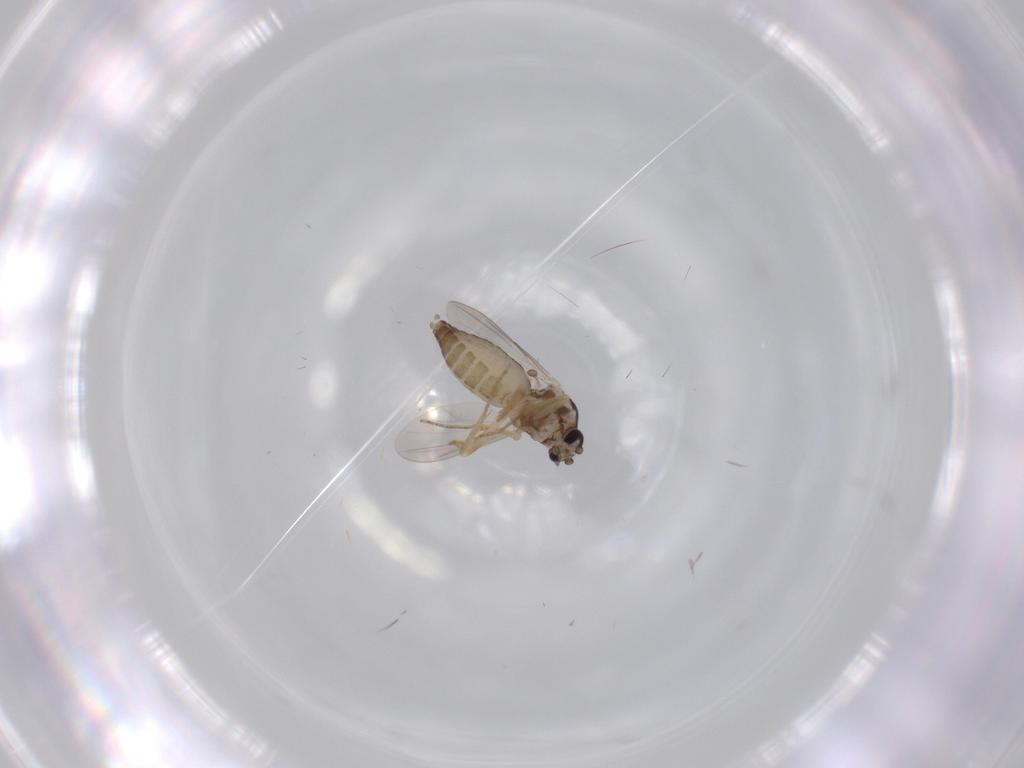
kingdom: Animalia
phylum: Arthropoda
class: Insecta
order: Diptera
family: Ceratopogonidae
